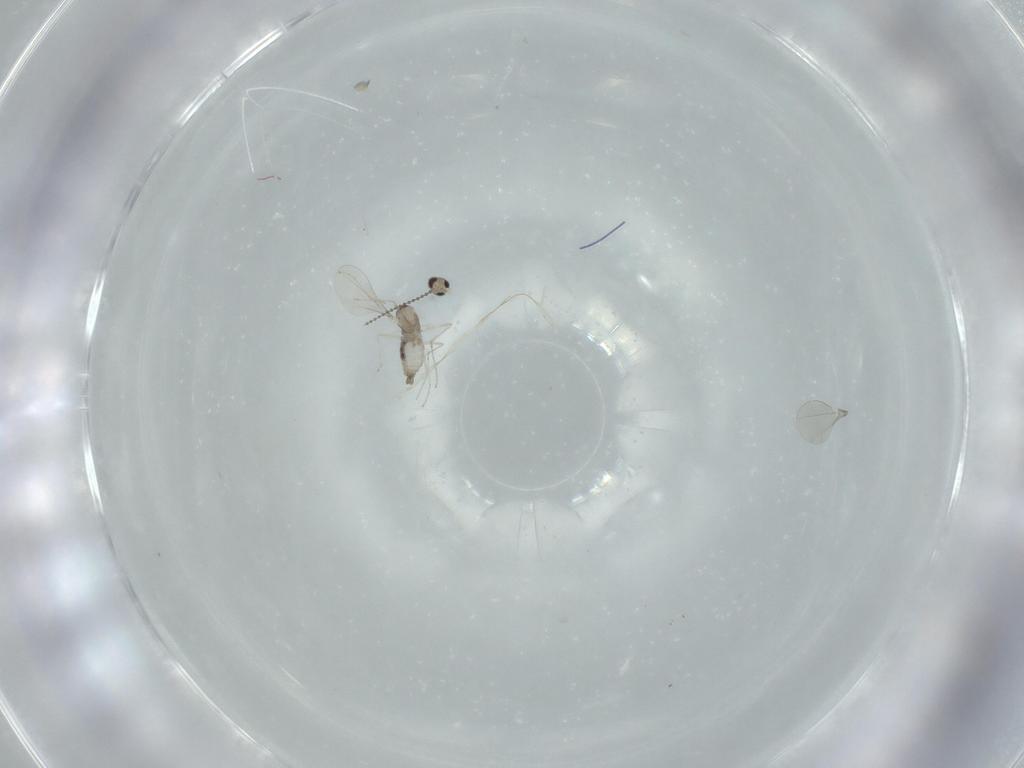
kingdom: Animalia
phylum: Arthropoda
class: Insecta
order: Diptera
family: Cecidomyiidae
